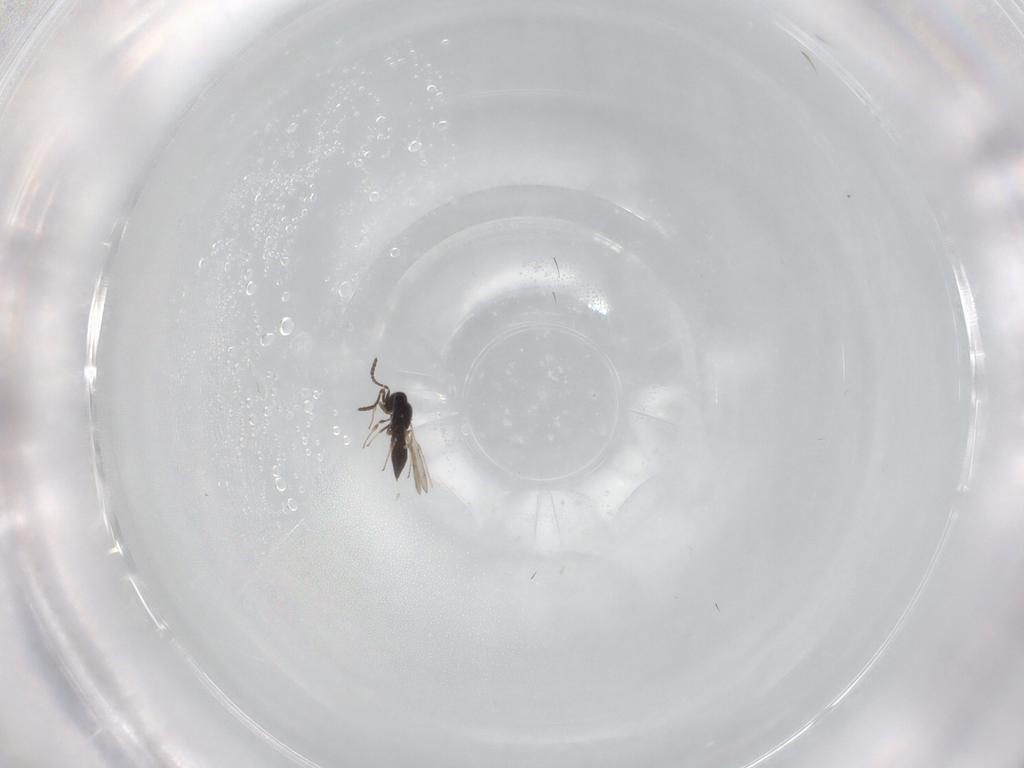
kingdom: Animalia
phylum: Arthropoda
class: Insecta
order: Hymenoptera
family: Scelionidae
